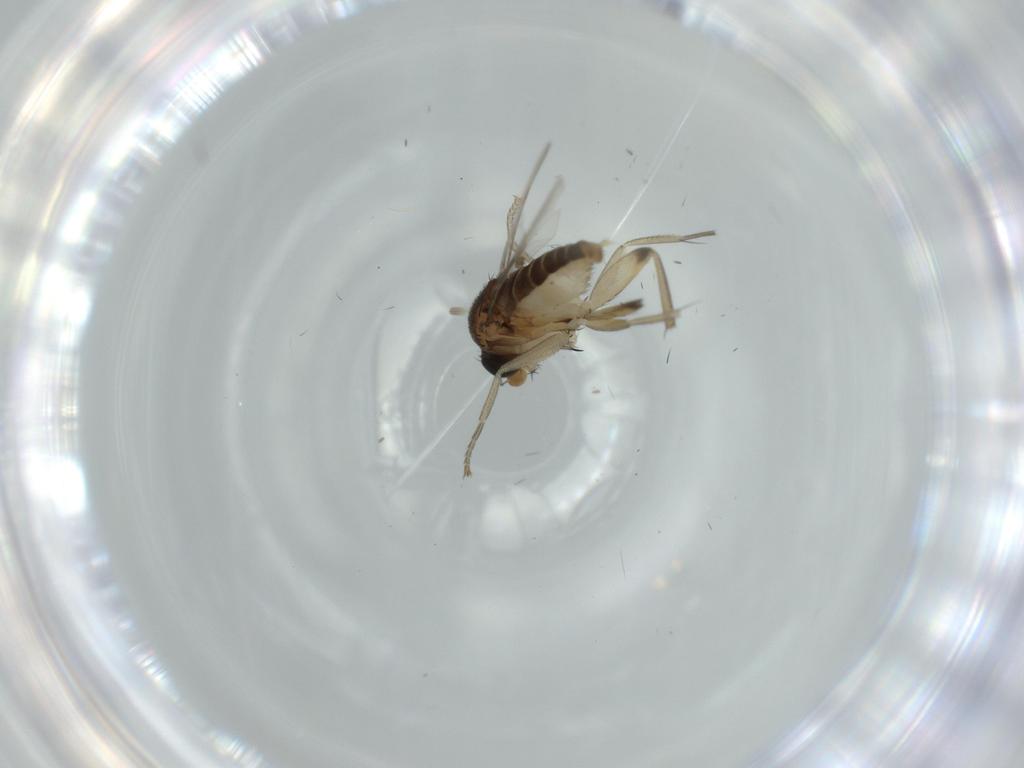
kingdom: Animalia
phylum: Arthropoda
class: Insecta
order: Diptera
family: Phoridae
